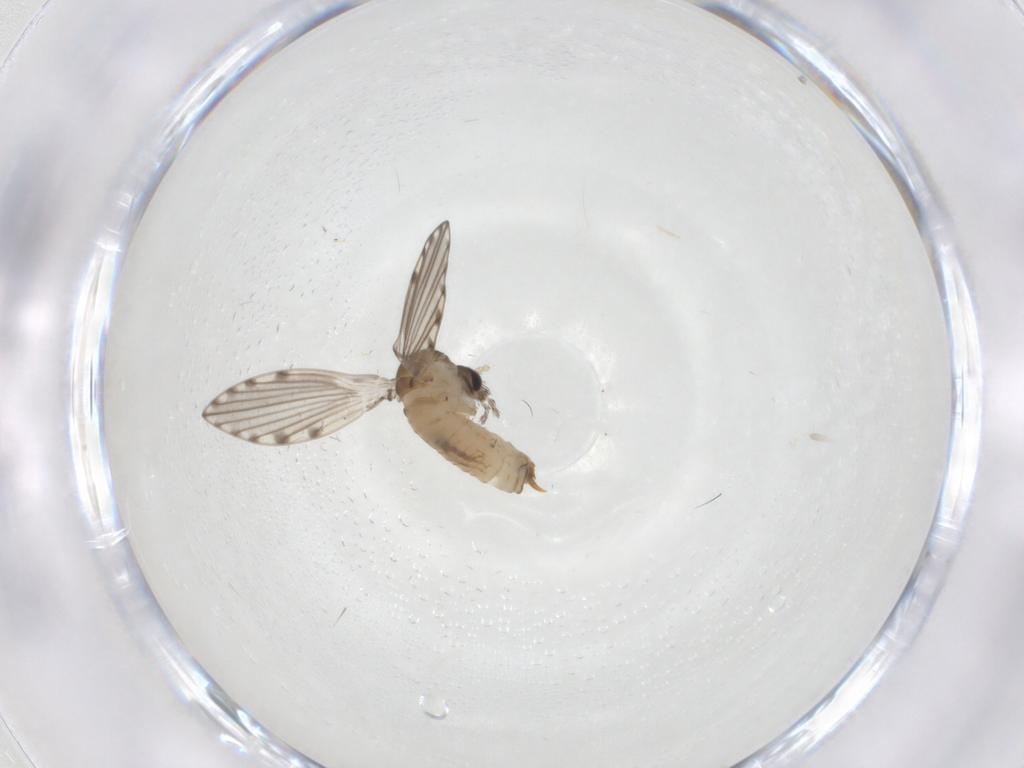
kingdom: Animalia
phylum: Arthropoda
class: Insecta
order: Diptera
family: Psychodidae
